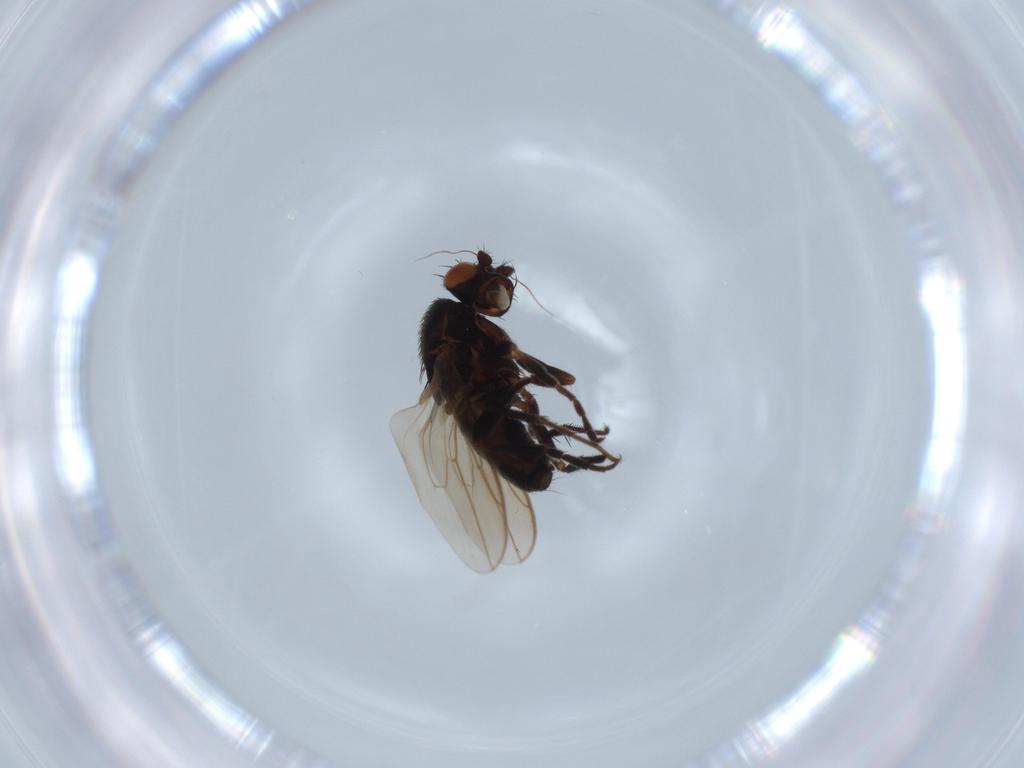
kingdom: Animalia
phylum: Arthropoda
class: Insecta
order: Diptera
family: Sphaeroceridae
